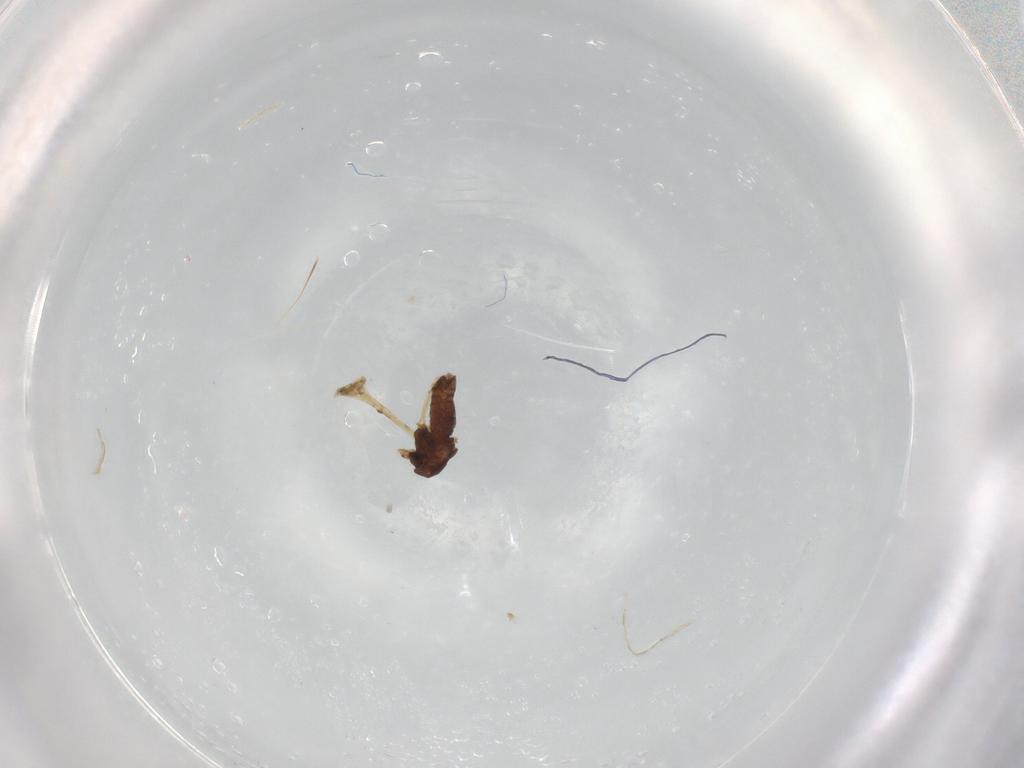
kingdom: Animalia
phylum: Arthropoda
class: Insecta
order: Diptera
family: Chironomidae
